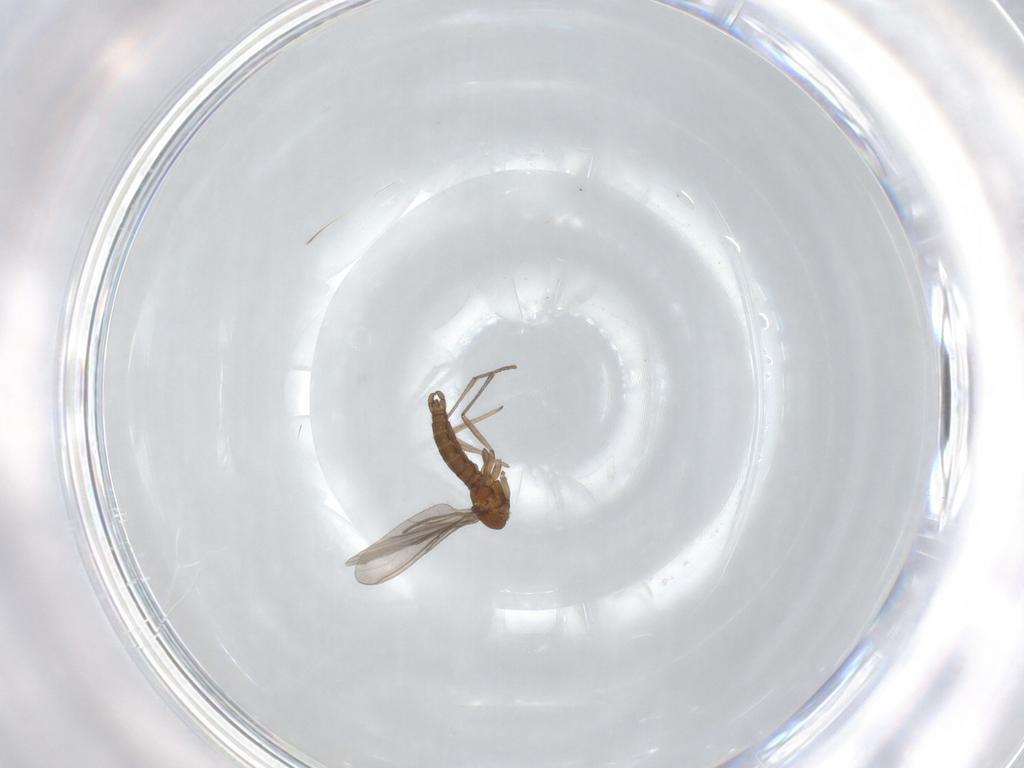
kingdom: Animalia
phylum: Arthropoda
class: Insecta
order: Diptera
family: Sciaridae
